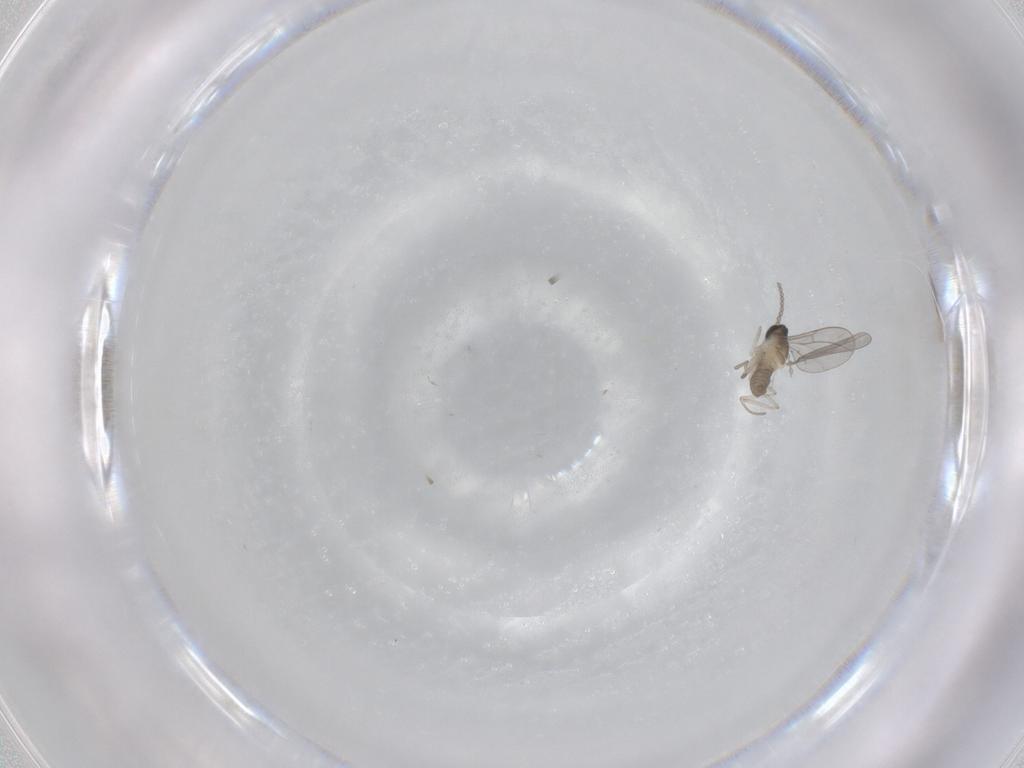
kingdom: Animalia
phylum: Arthropoda
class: Insecta
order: Diptera
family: Cecidomyiidae
